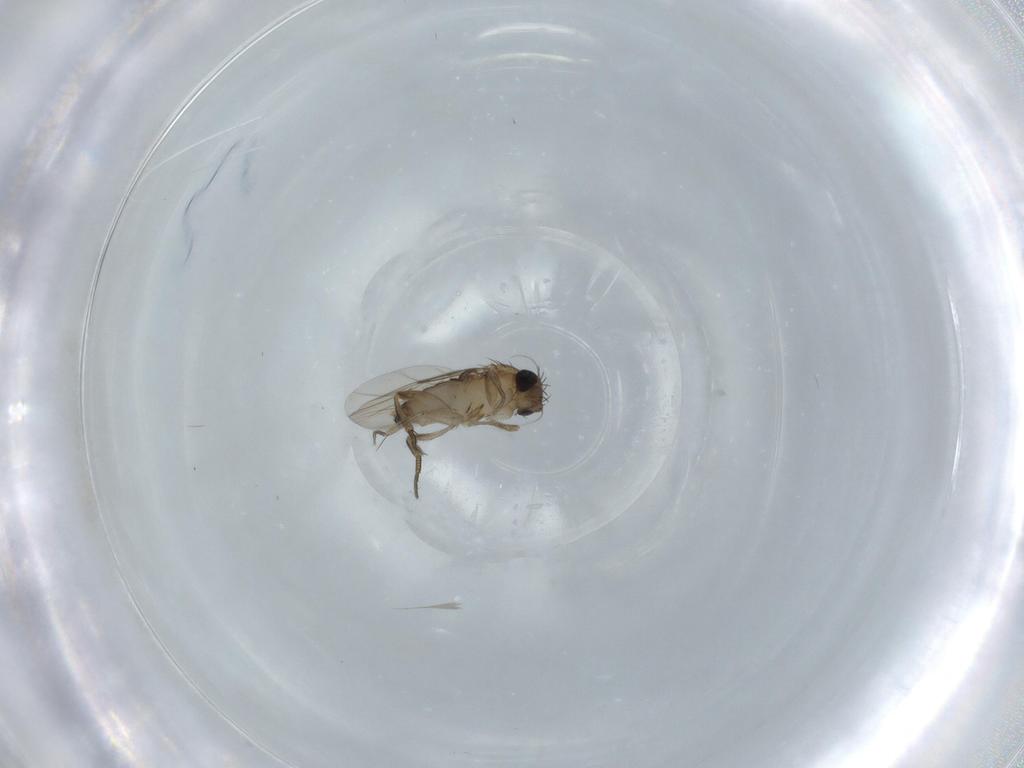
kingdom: Animalia
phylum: Arthropoda
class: Insecta
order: Diptera
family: Phoridae
